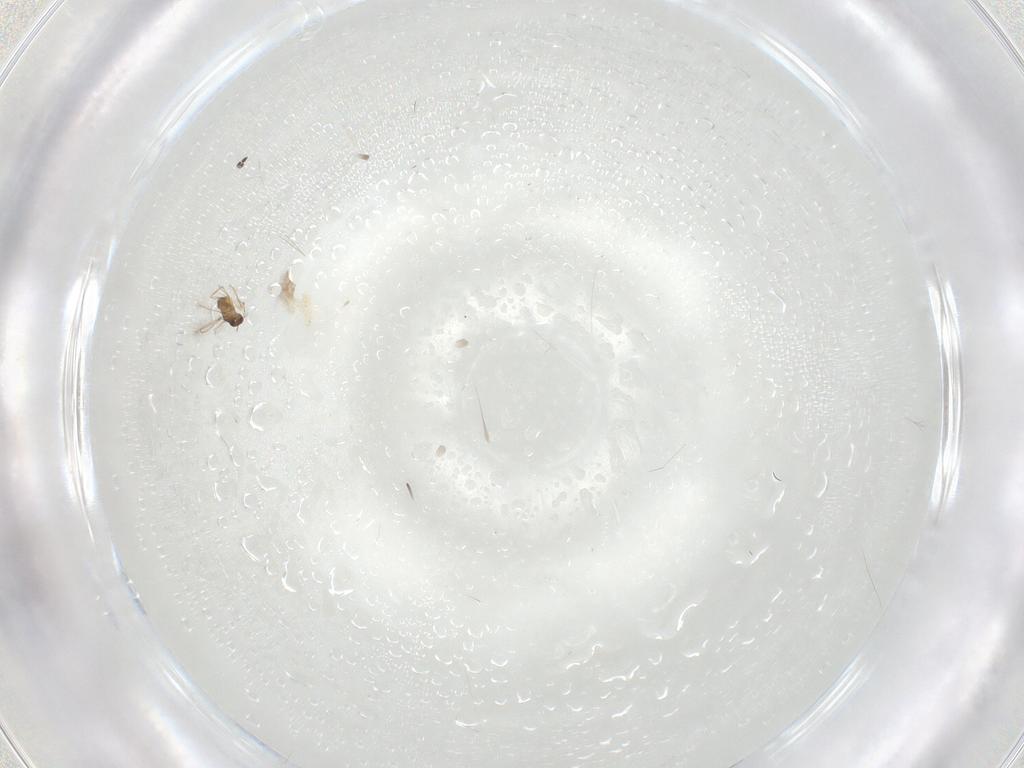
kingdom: Animalia
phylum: Arthropoda
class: Insecta
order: Hymenoptera
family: Mymaridae
